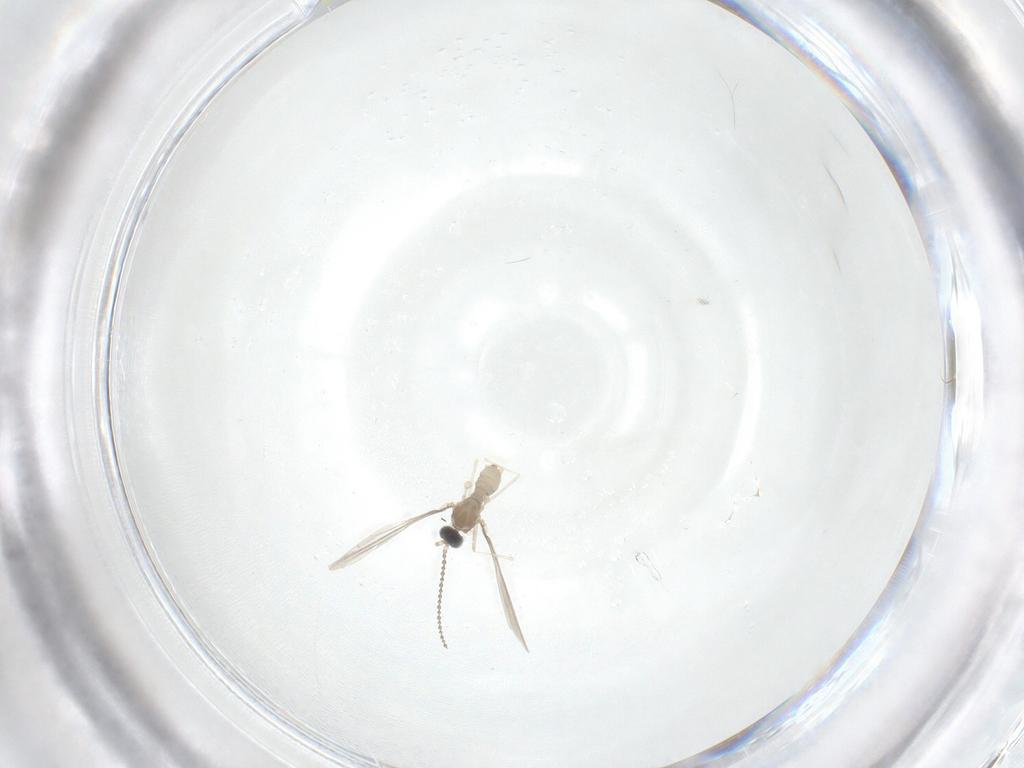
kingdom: Animalia
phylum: Arthropoda
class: Insecta
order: Diptera
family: Cecidomyiidae
